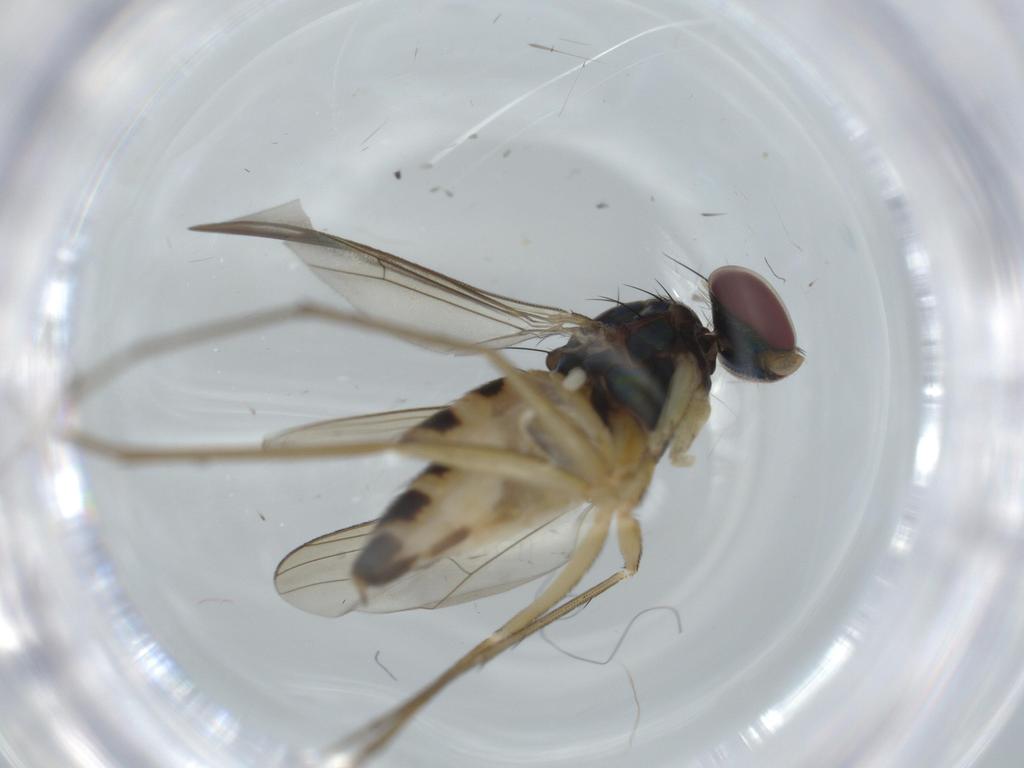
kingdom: Animalia
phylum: Arthropoda
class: Insecta
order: Diptera
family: Dolichopodidae
